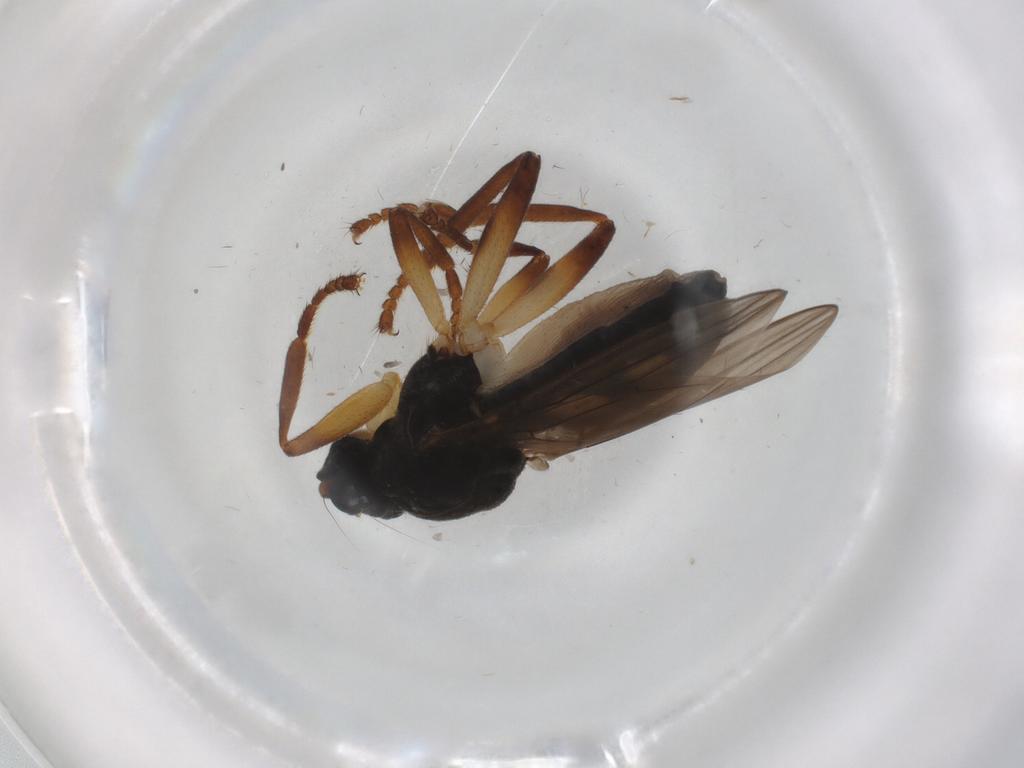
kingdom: Animalia
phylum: Arthropoda
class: Insecta
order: Diptera
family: Sphaeroceridae
